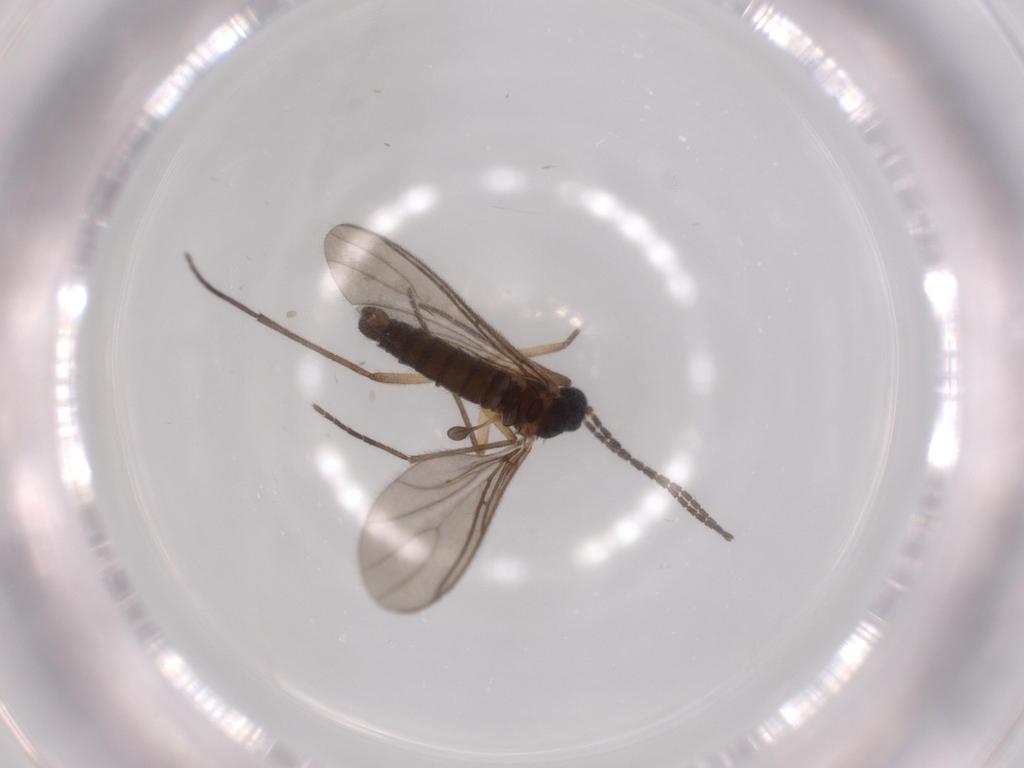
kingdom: Animalia
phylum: Arthropoda
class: Insecta
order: Diptera
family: Sciaridae
